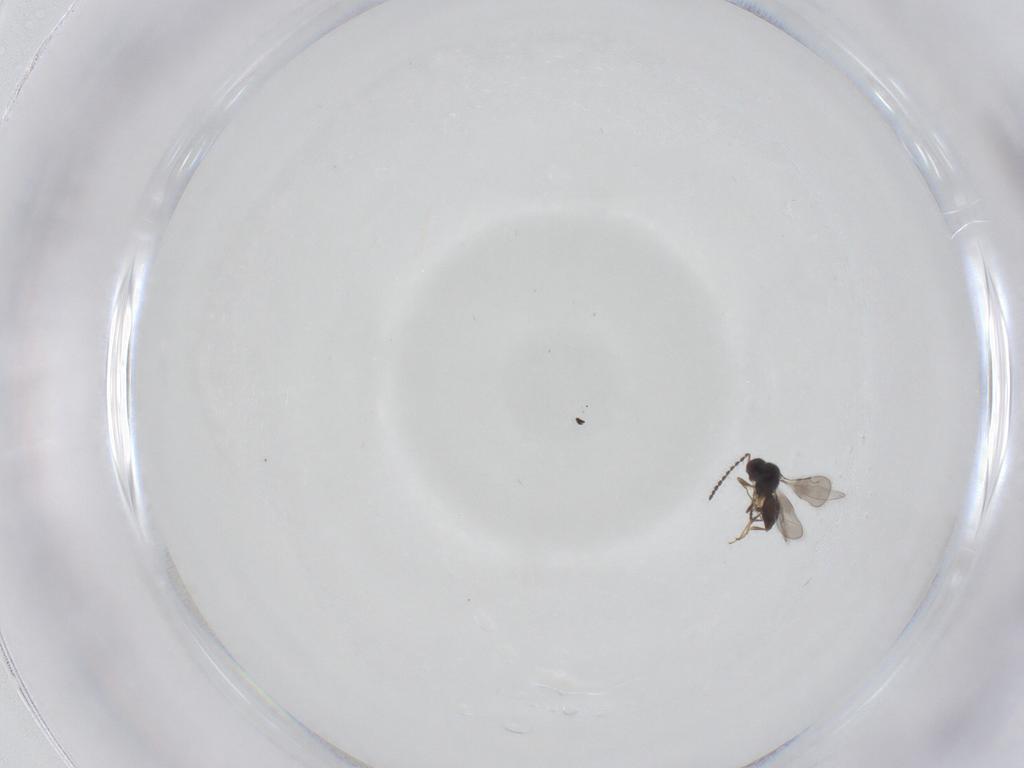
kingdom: Animalia
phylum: Arthropoda
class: Insecta
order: Hymenoptera
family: Ceraphronidae
